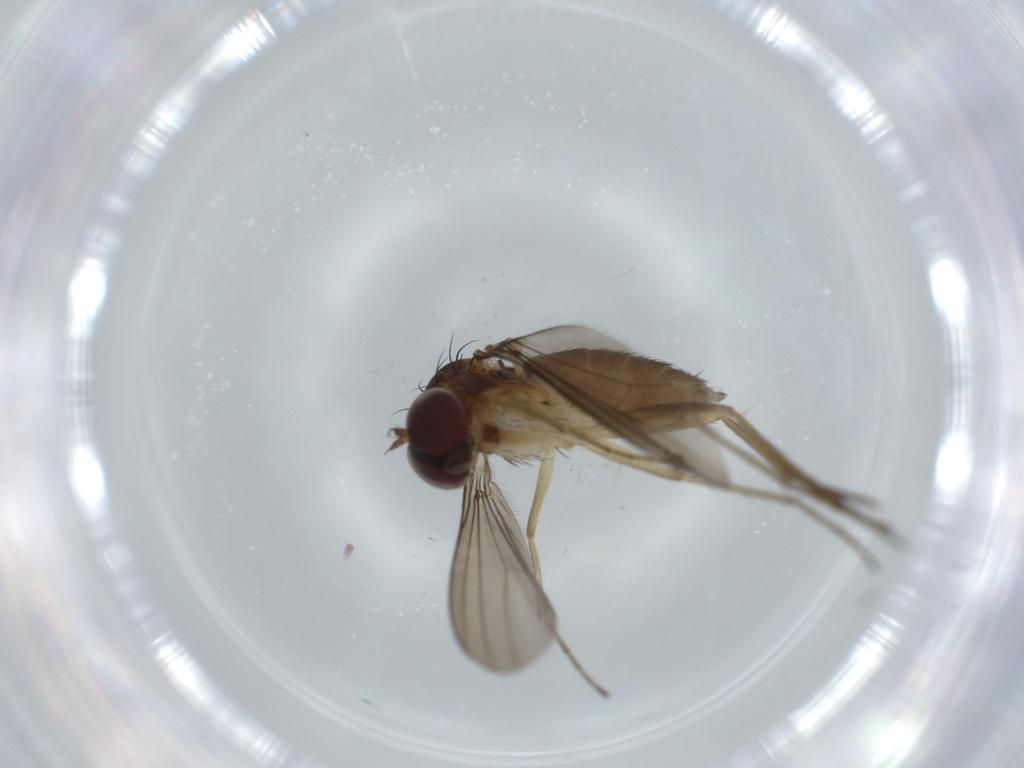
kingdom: Animalia
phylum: Arthropoda
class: Insecta
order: Diptera
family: Dolichopodidae
